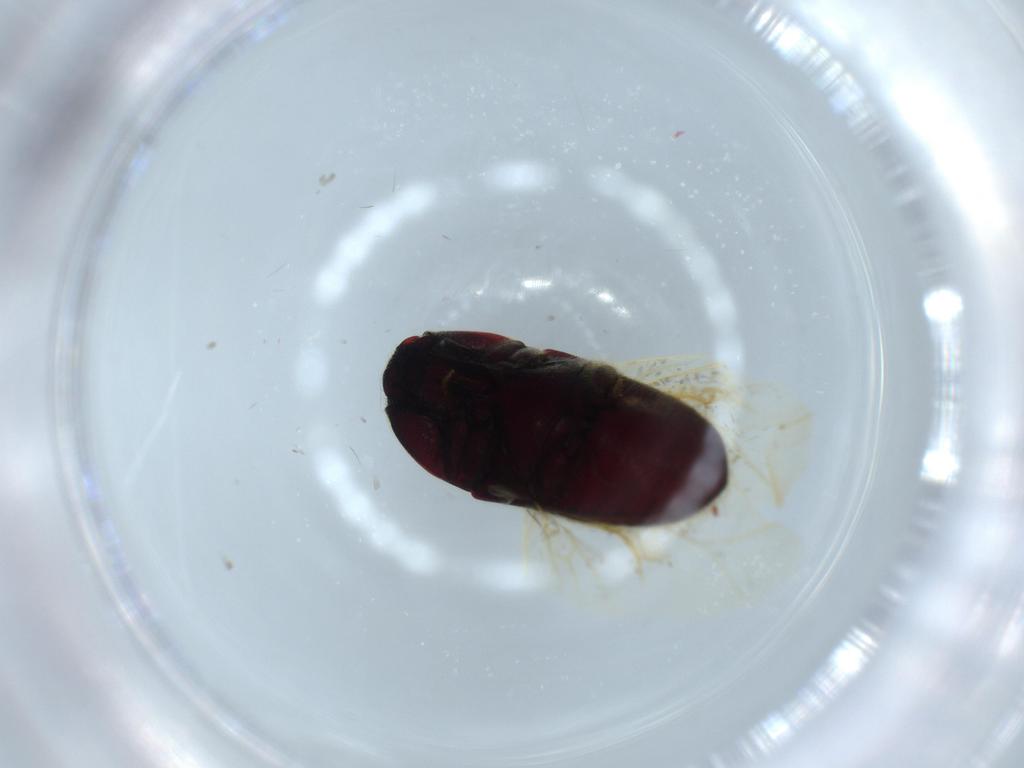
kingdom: Animalia
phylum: Arthropoda
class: Insecta
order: Coleoptera
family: Throscidae
